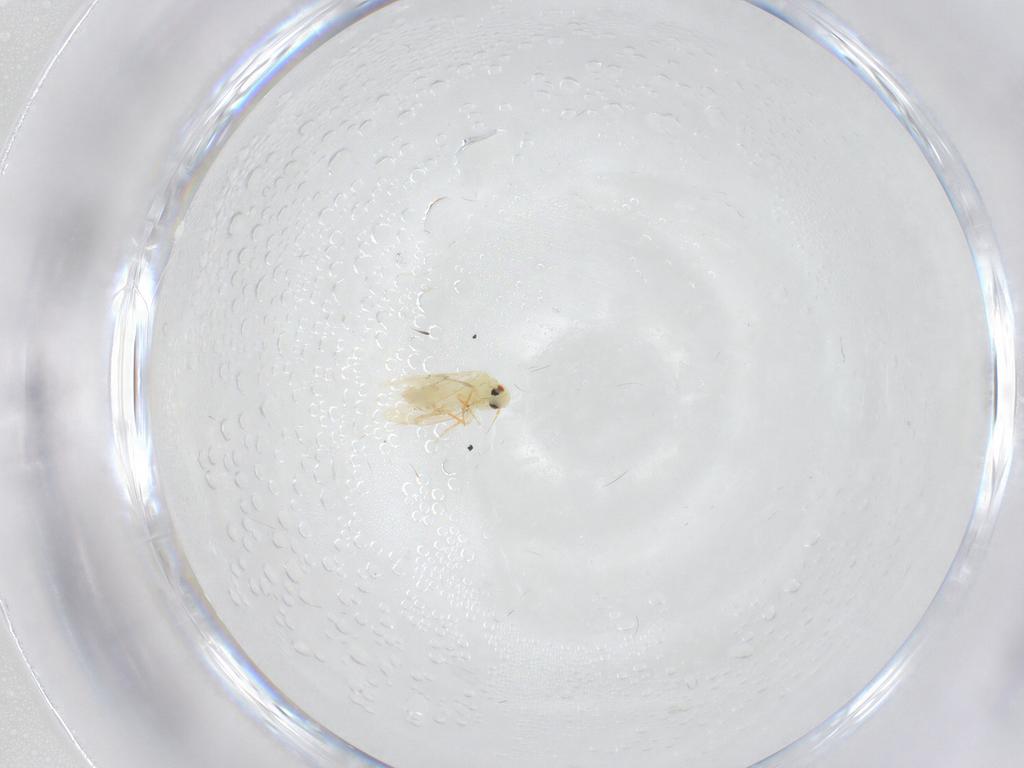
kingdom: Animalia
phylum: Arthropoda
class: Insecta
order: Hemiptera
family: Aleyrodidae
